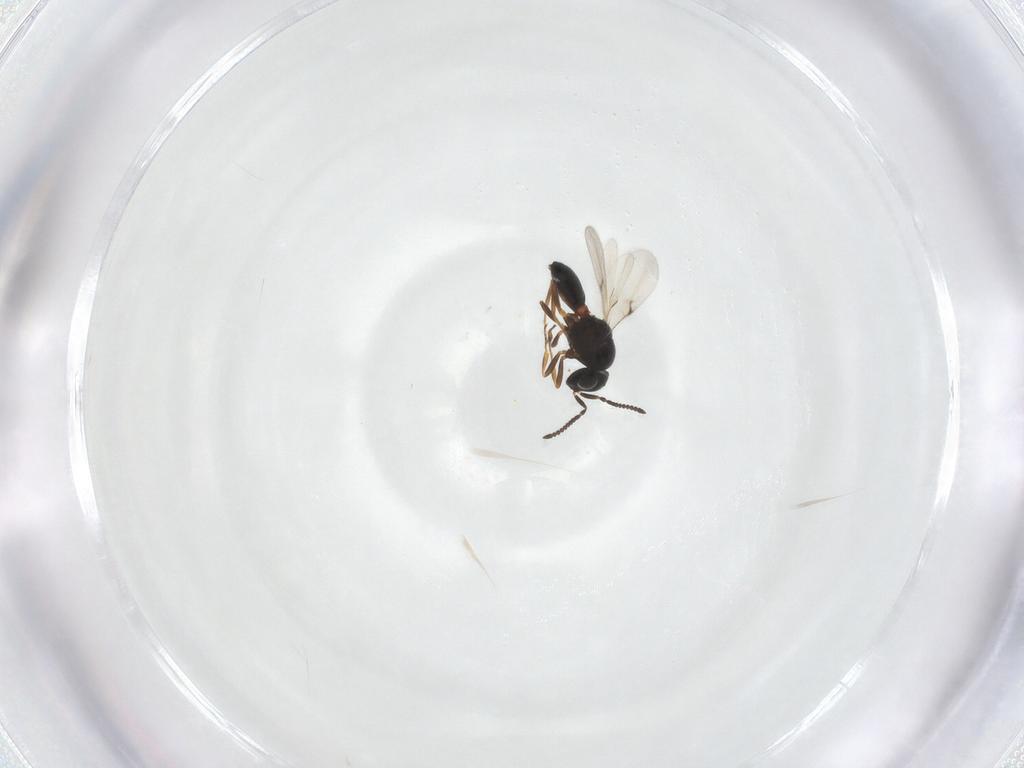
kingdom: Animalia
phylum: Arthropoda
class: Arachnida
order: Araneae
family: Pholcidae
